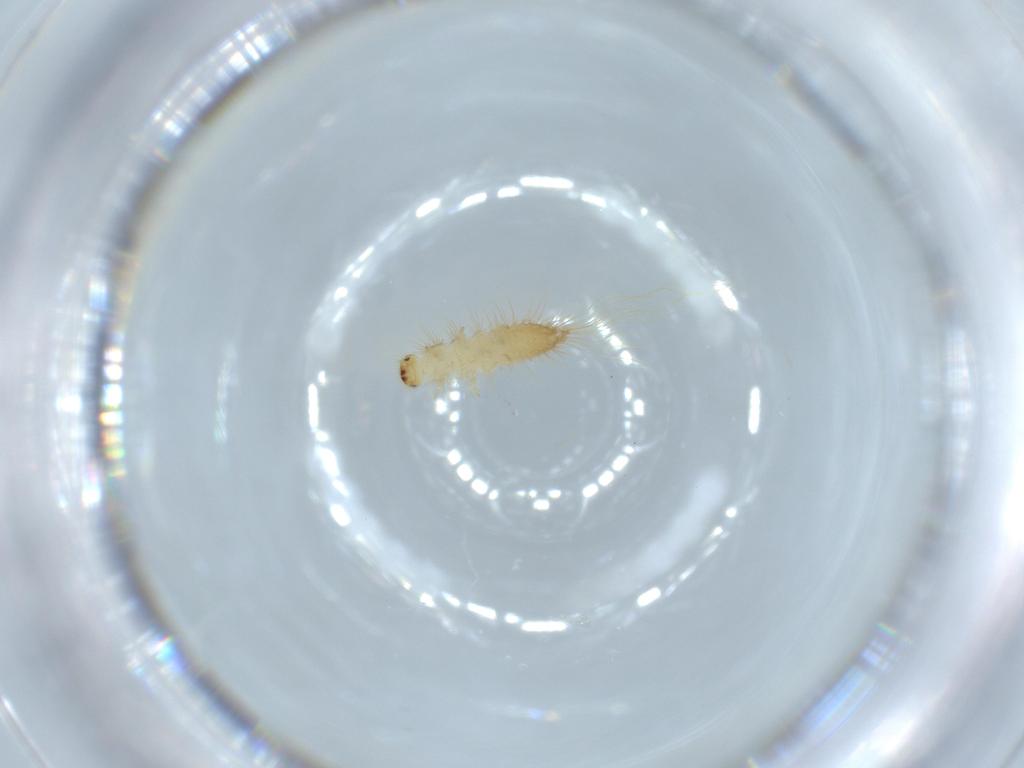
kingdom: Animalia
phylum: Arthropoda
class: Insecta
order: Coleoptera
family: Dermestidae
